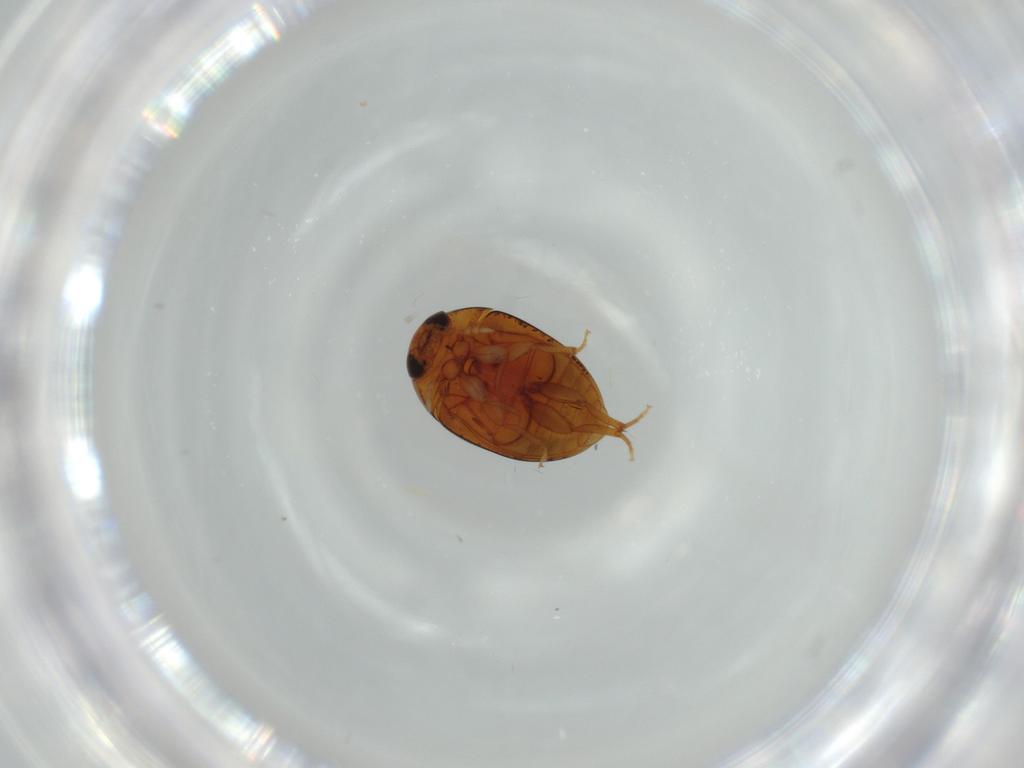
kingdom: Animalia
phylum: Arthropoda
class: Insecta
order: Coleoptera
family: Phalacridae
